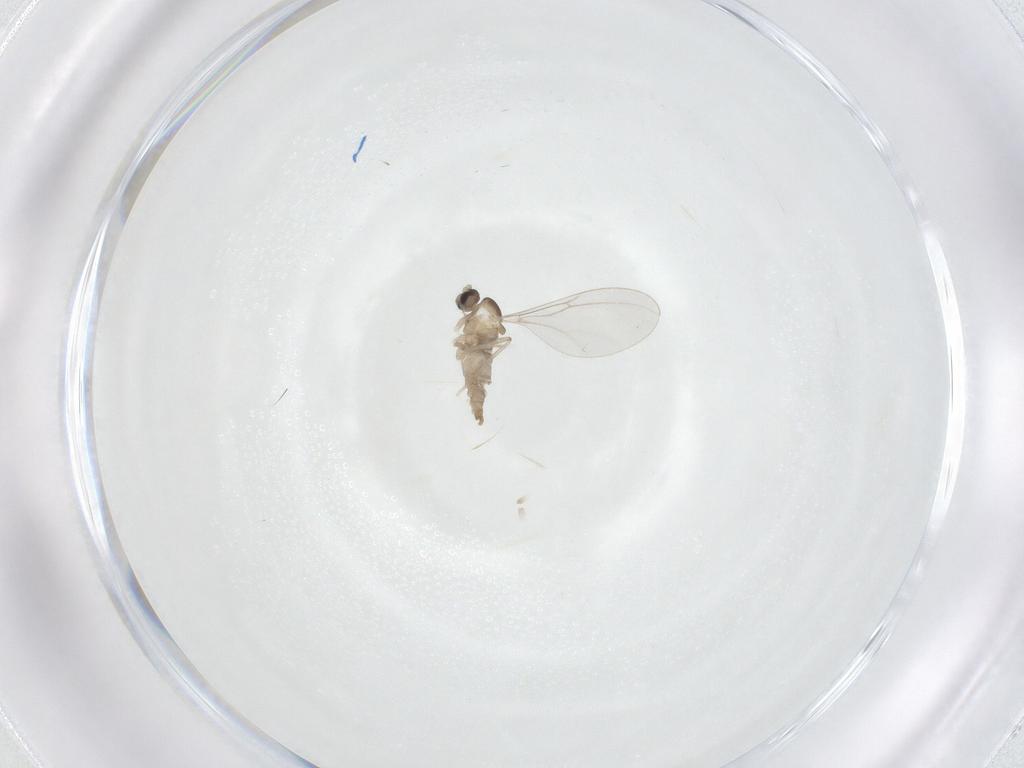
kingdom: Animalia
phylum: Arthropoda
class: Insecta
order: Diptera
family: Cecidomyiidae
